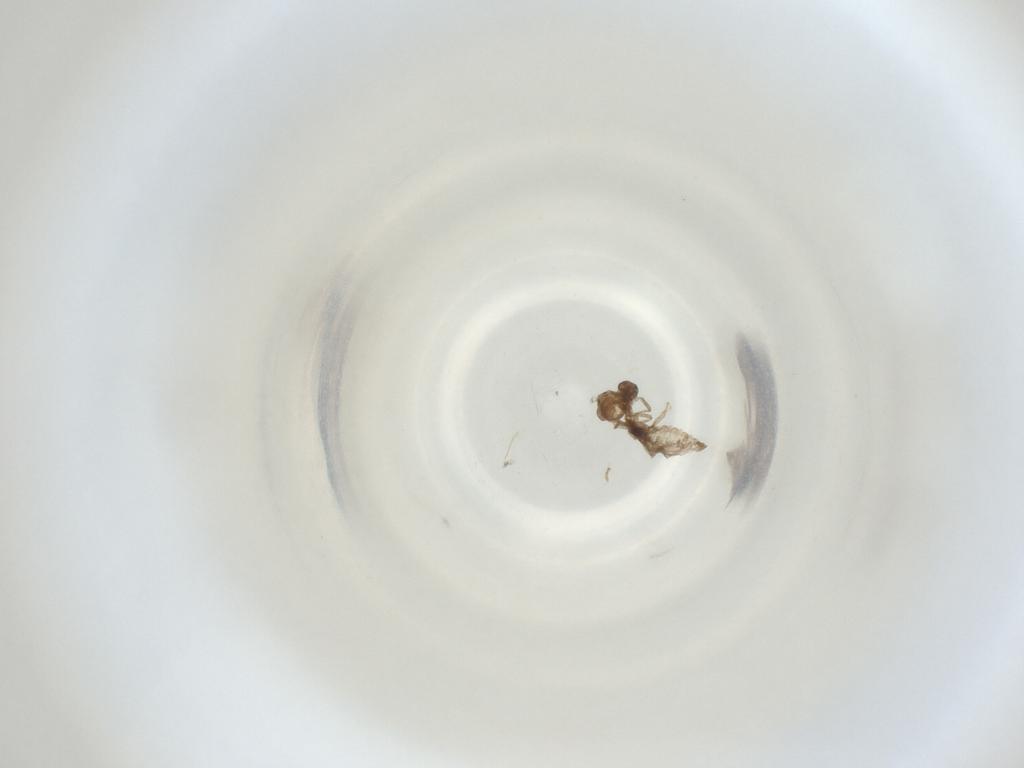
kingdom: Animalia
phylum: Arthropoda
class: Insecta
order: Diptera
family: Cecidomyiidae
